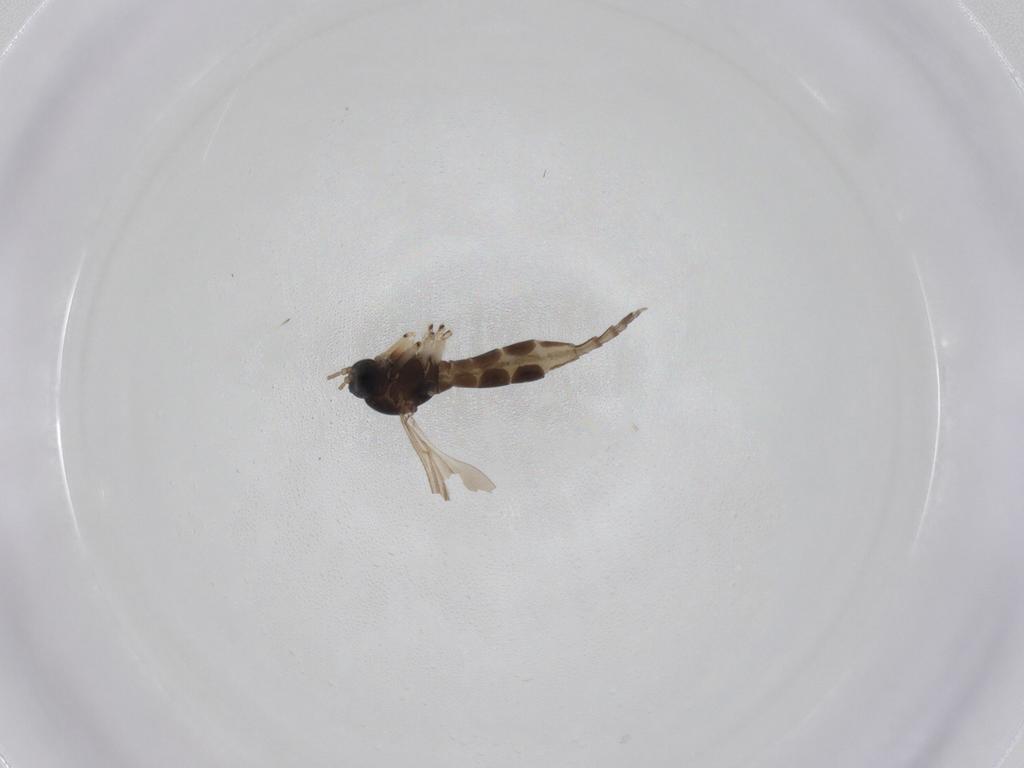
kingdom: Animalia
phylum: Arthropoda
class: Insecta
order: Diptera
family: Sciaridae
